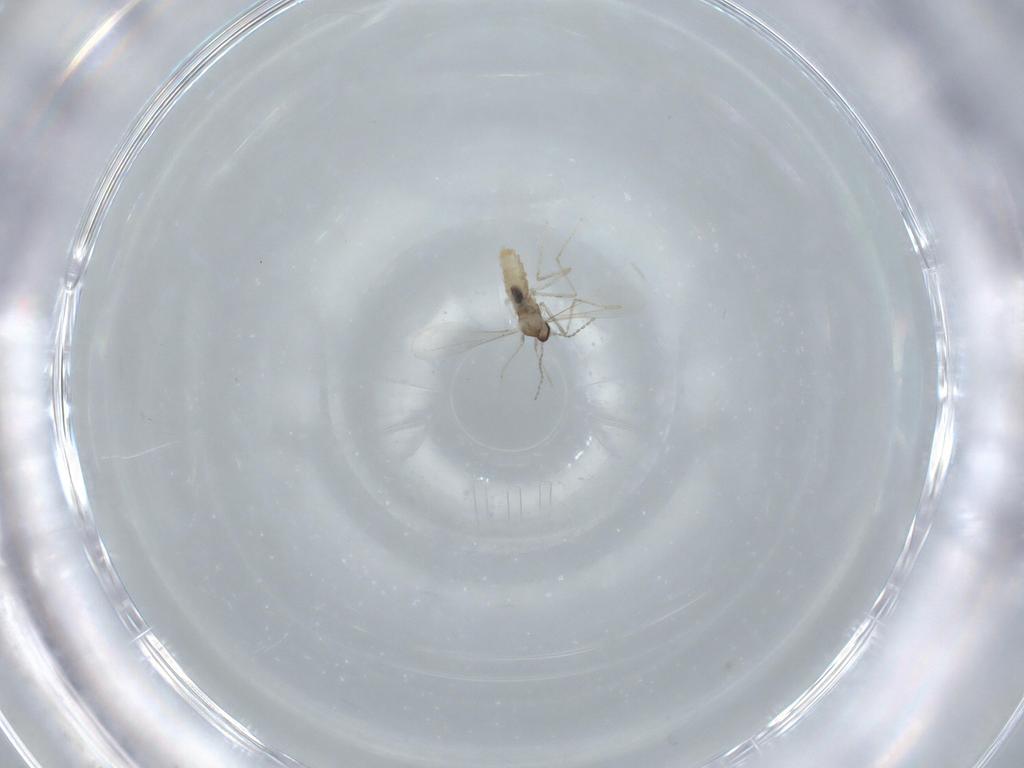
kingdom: Animalia
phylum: Arthropoda
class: Insecta
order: Diptera
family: Cecidomyiidae
